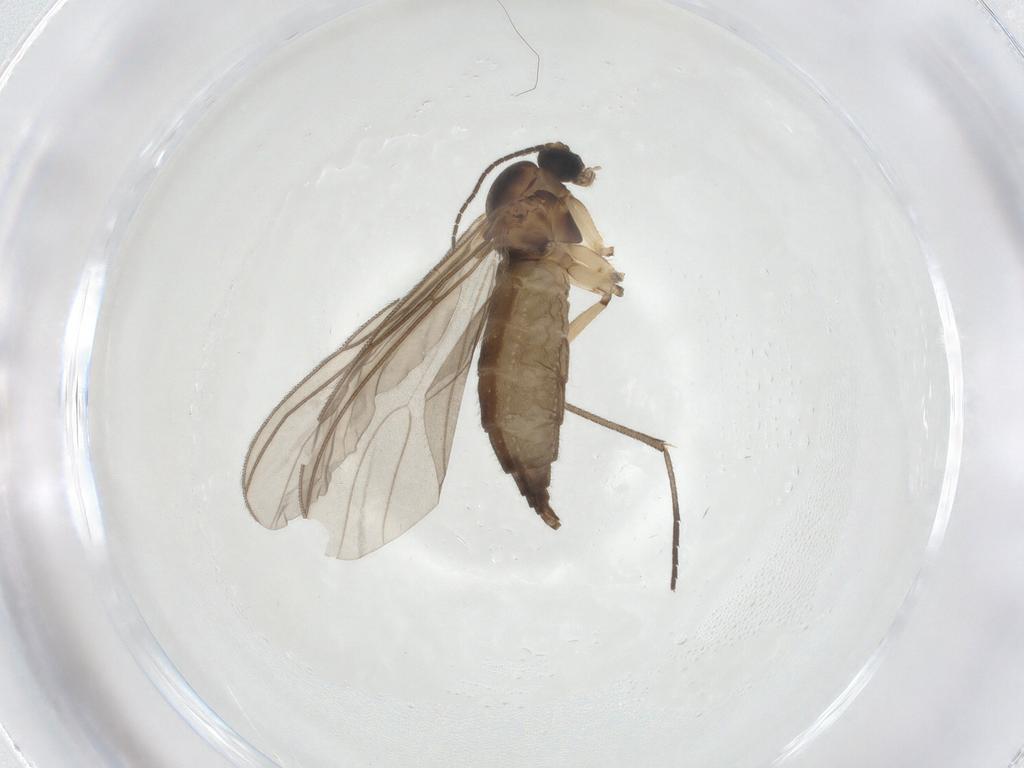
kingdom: Animalia
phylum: Arthropoda
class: Insecta
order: Diptera
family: Sciaridae
